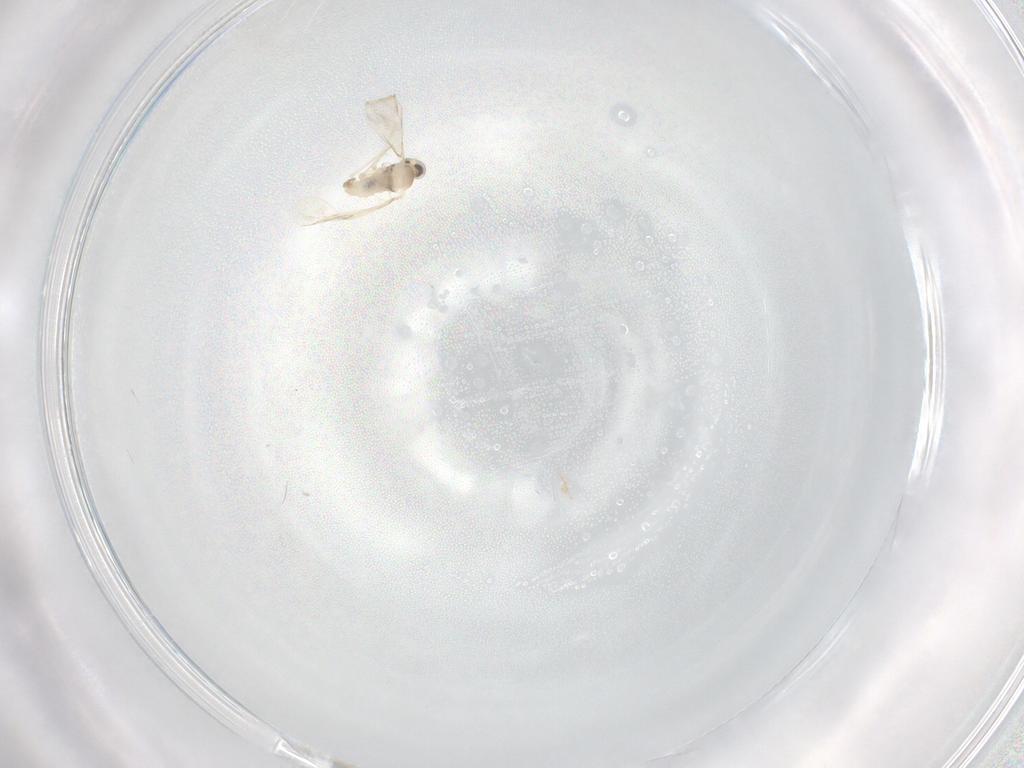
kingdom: Animalia
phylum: Arthropoda
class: Insecta
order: Diptera
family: Cecidomyiidae
